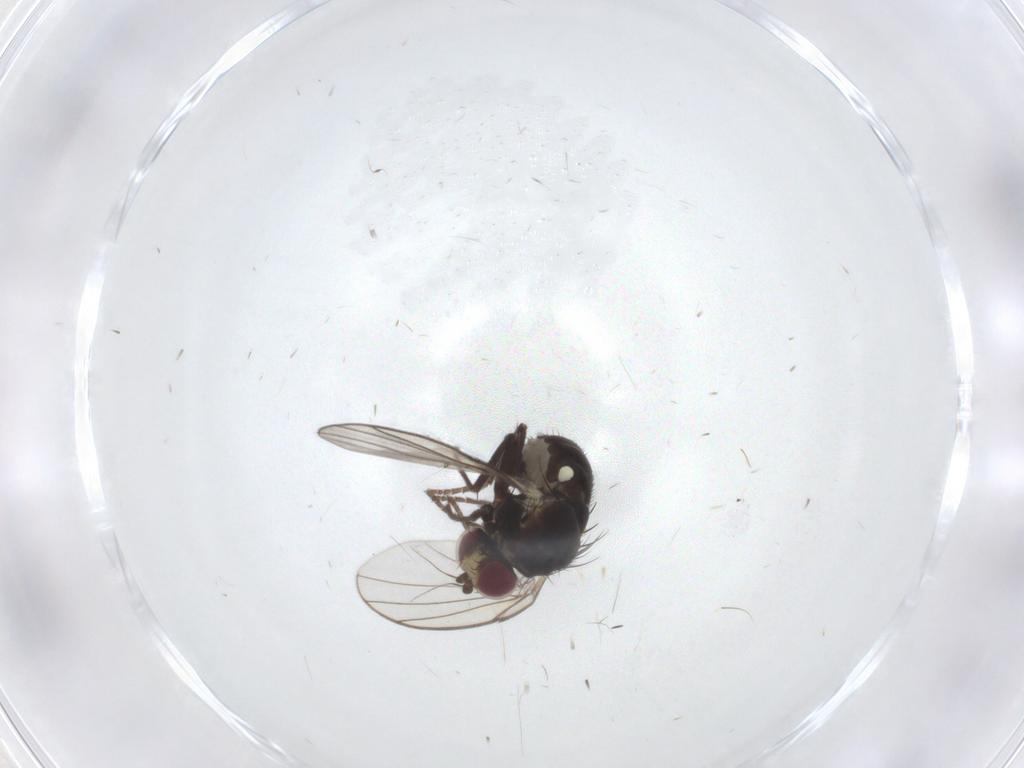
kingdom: Animalia
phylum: Arthropoda
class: Insecta
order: Diptera
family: Agromyzidae
